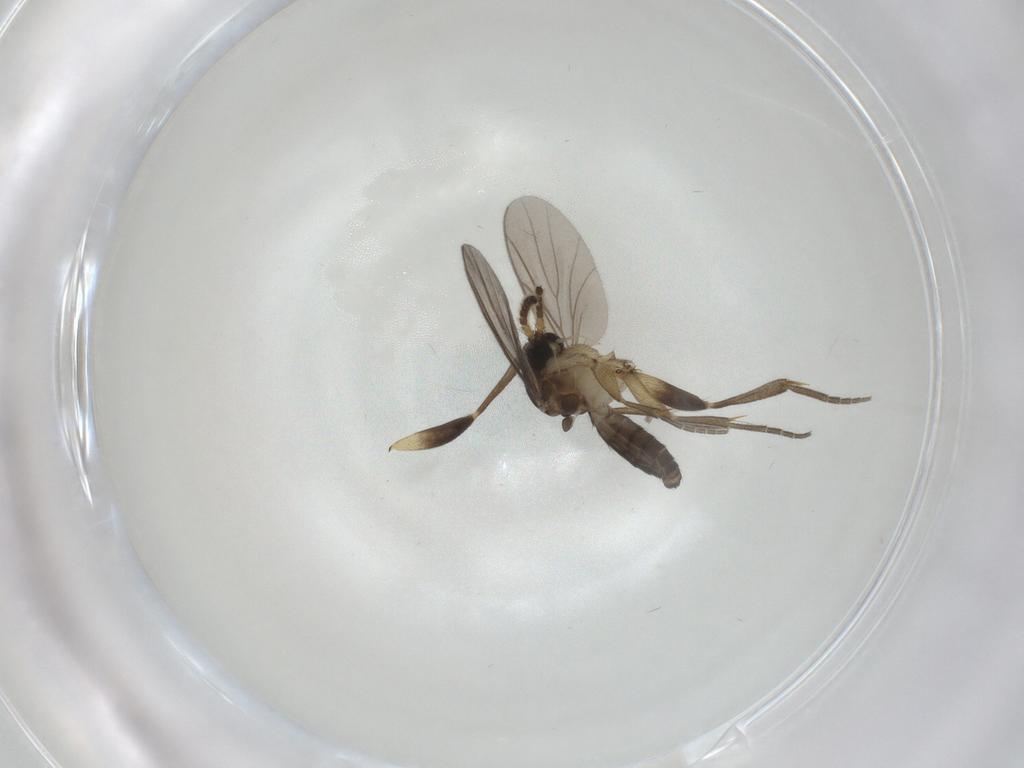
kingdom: Animalia
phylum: Arthropoda
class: Insecta
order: Diptera
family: Mycetophilidae
